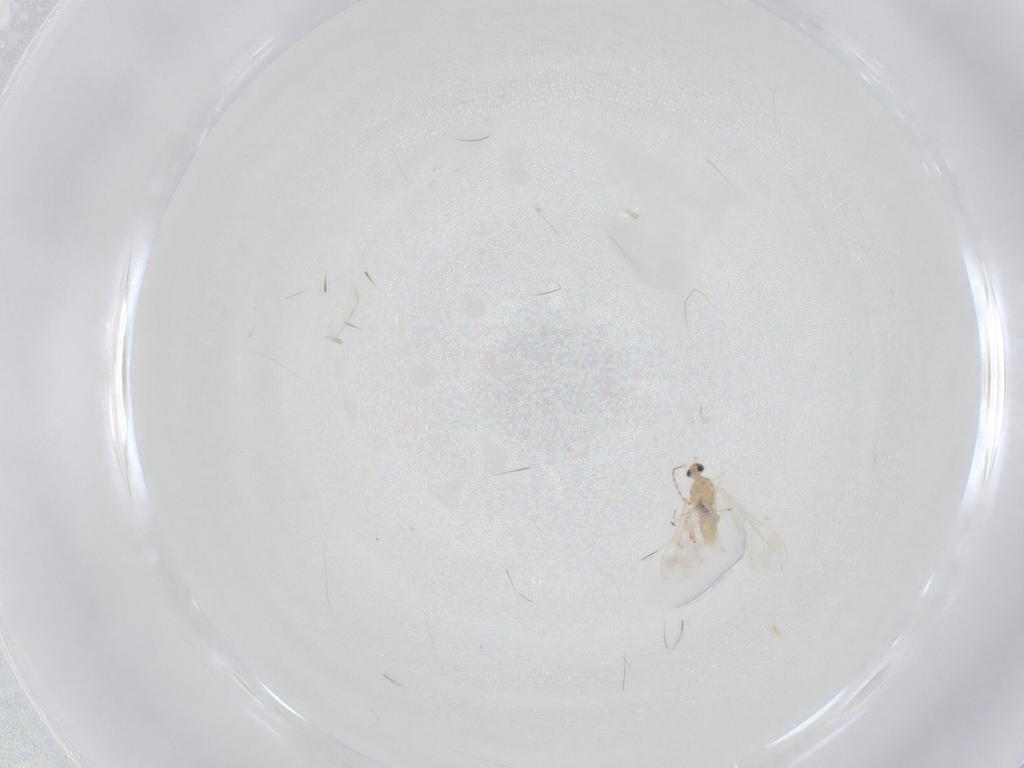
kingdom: Animalia
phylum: Arthropoda
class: Insecta
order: Diptera
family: Cecidomyiidae
